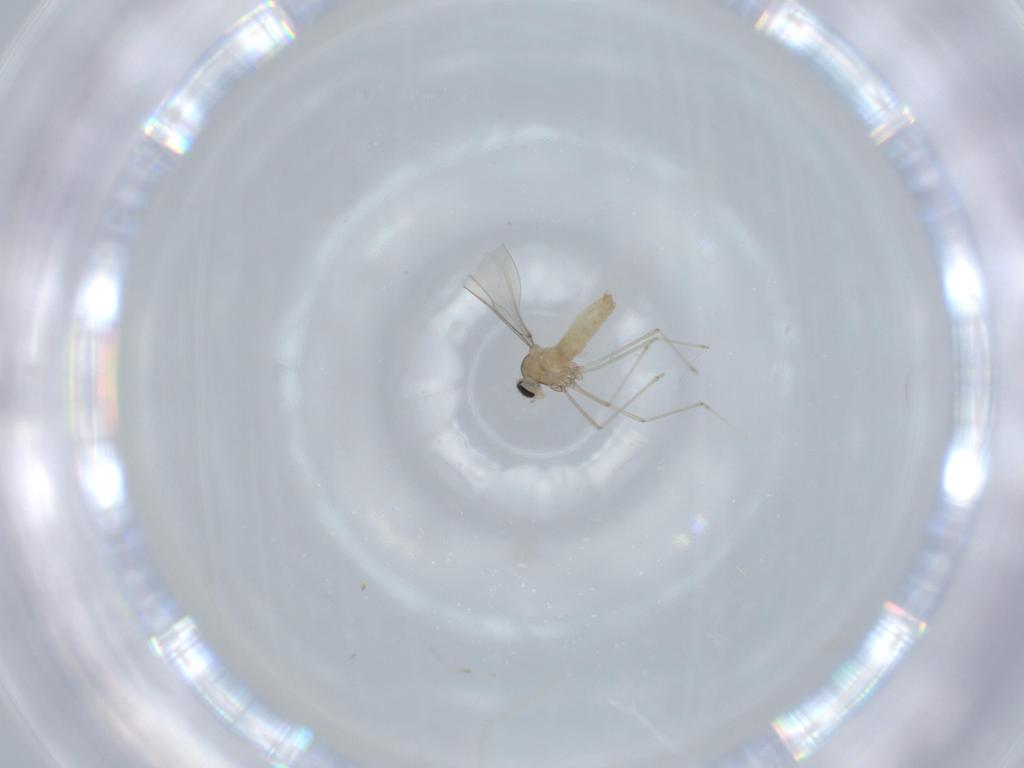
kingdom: Animalia
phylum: Arthropoda
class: Insecta
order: Diptera
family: Cecidomyiidae
